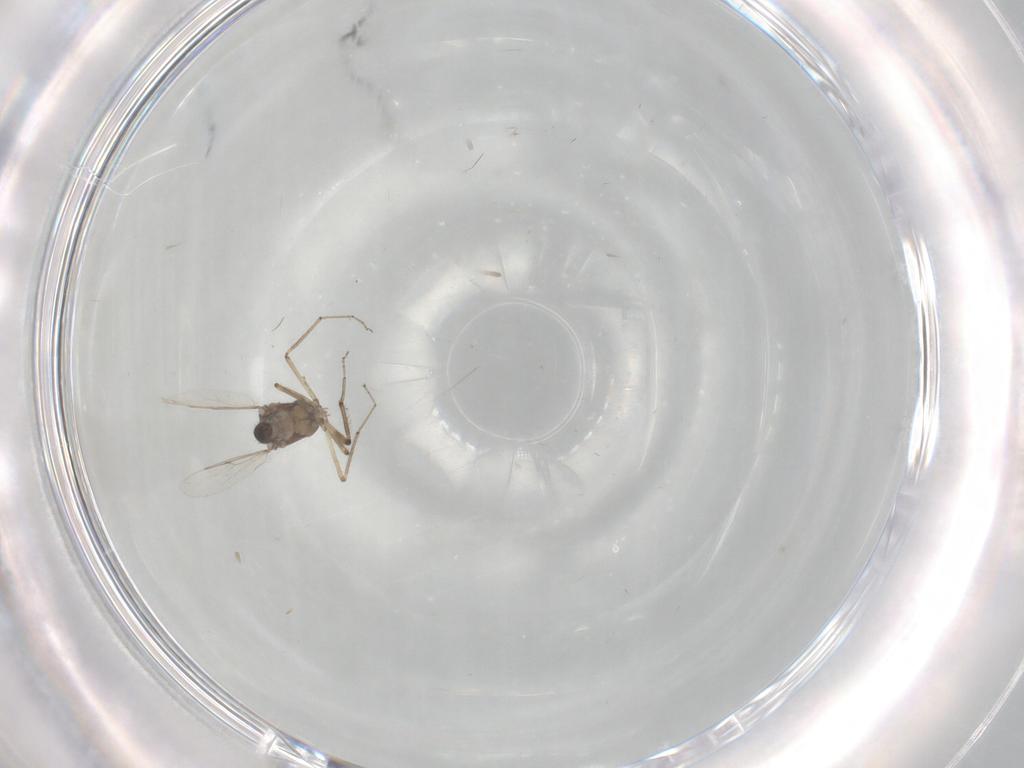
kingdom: Animalia
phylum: Arthropoda
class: Insecta
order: Diptera
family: Ceratopogonidae
